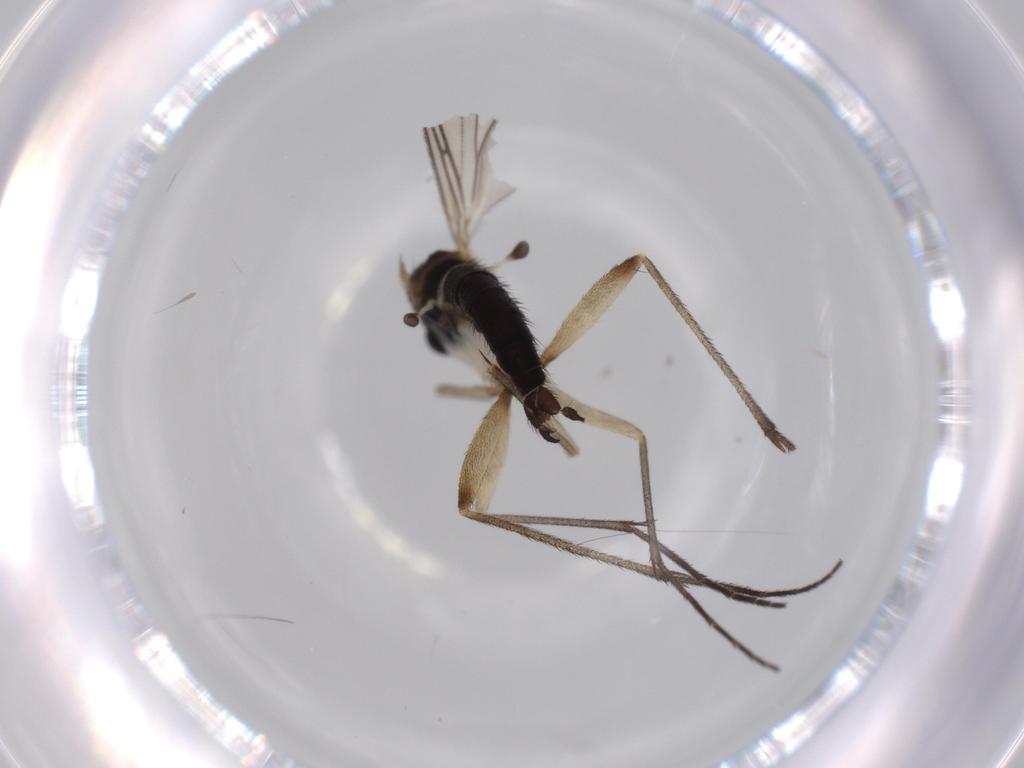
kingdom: Animalia
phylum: Arthropoda
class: Insecta
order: Diptera
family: Sciaridae
